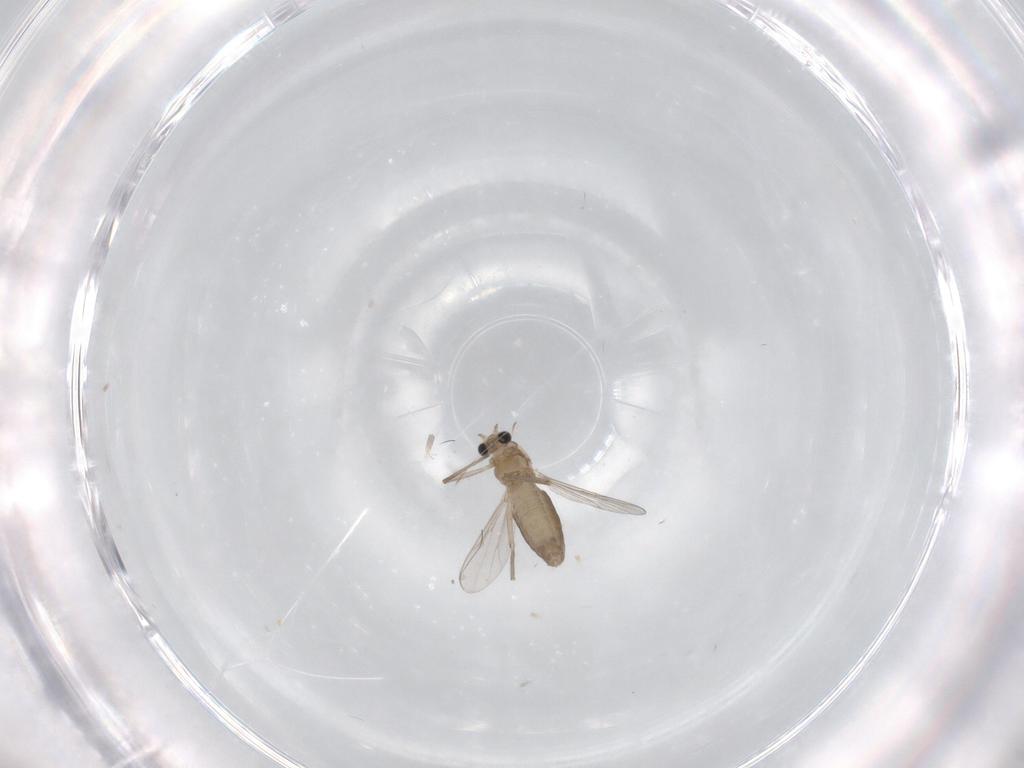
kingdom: Animalia
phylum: Arthropoda
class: Insecta
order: Diptera
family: Chironomidae
